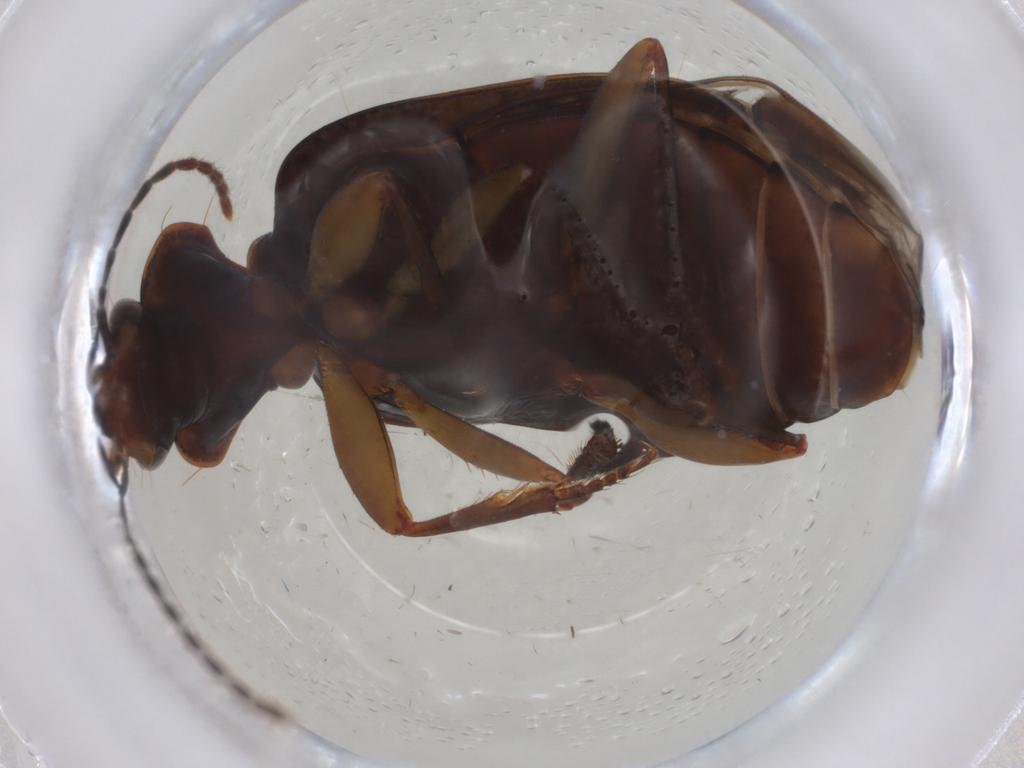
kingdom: Animalia
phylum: Arthropoda
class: Insecta
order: Coleoptera
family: Carabidae
